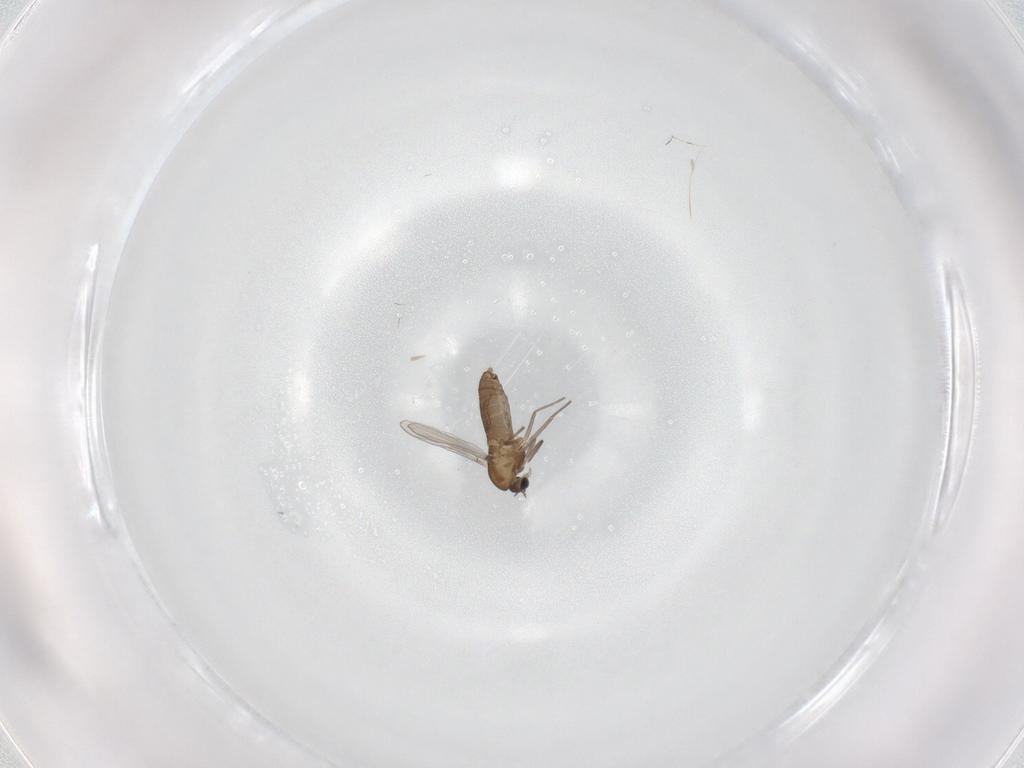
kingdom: Animalia
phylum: Arthropoda
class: Insecta
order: Diptera
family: Chironomidae
